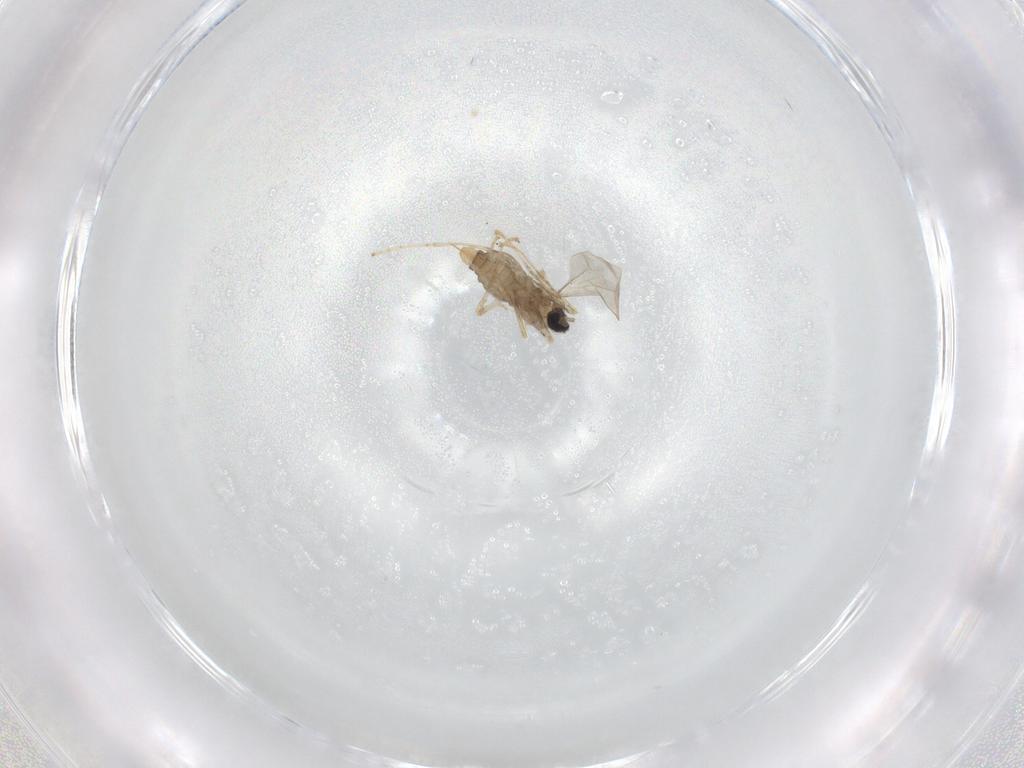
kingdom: Animalia
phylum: Arthropoda
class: Insecta
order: Diptera
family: Cecidomyiidae
